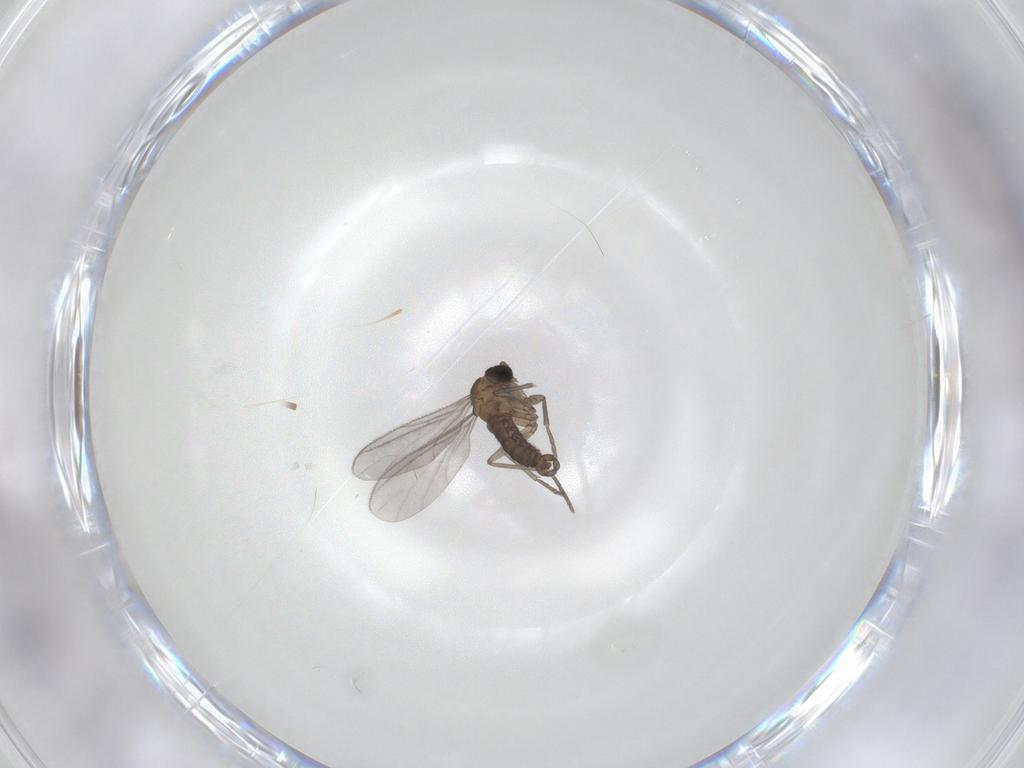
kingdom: Animalia
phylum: Arthropoda
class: Insecta
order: Diptera
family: Sciaridae
